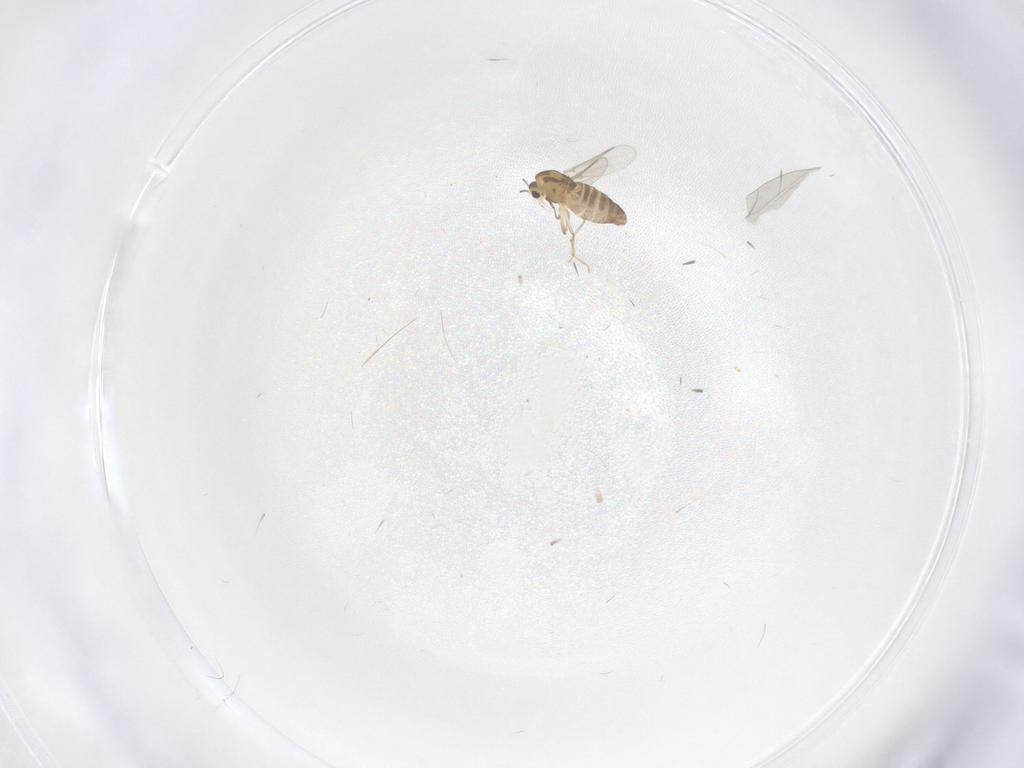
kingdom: Animalia
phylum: Arthropoda
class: Insecta
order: Diptera
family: Chironomidae
